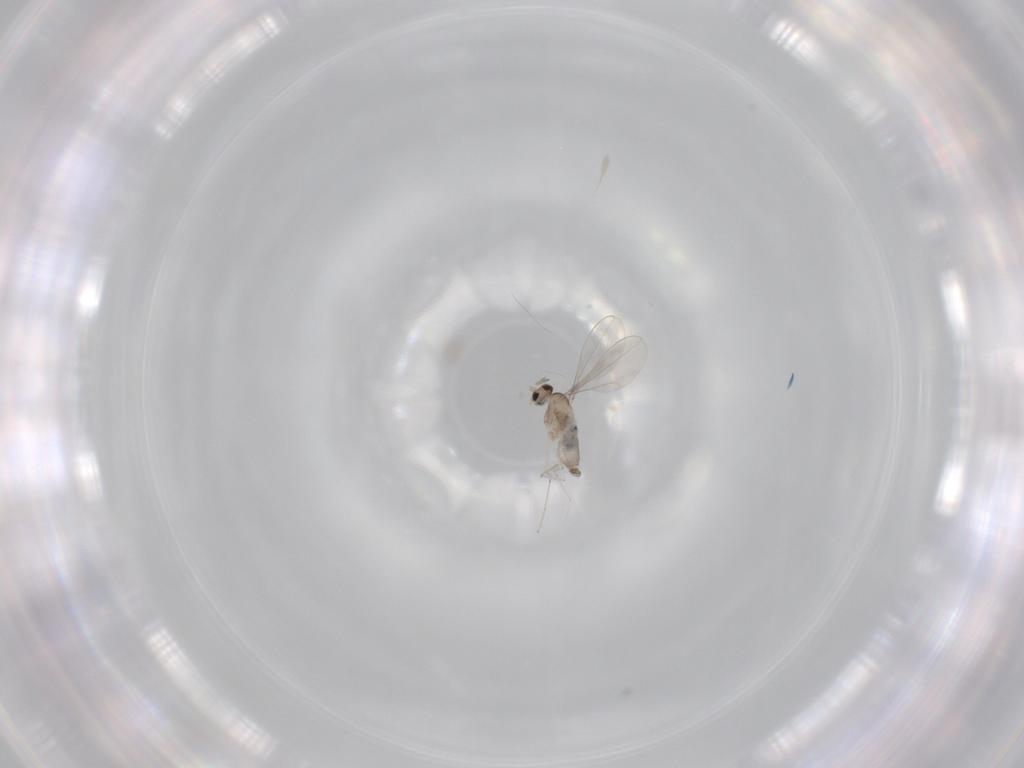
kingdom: Animalia
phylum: Arthropoda
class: Insecta
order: Diptera
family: Cecidomyiidae
